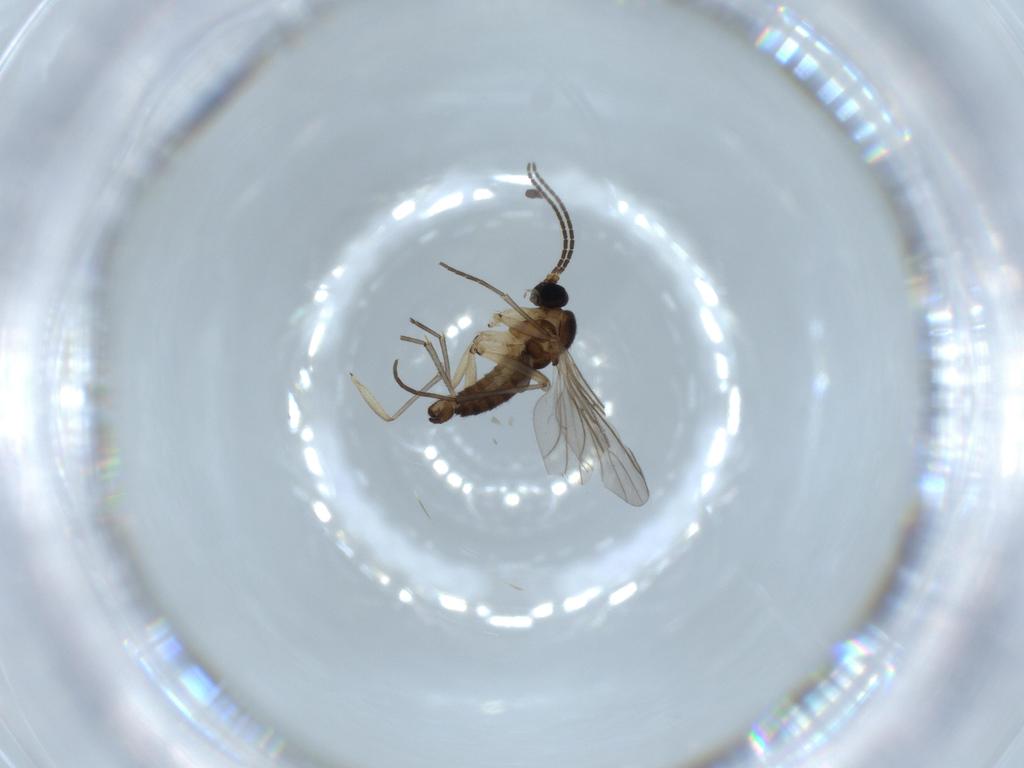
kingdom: Animalia
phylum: Arthropoda
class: Insecta
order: Diptera
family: Sciaridae
